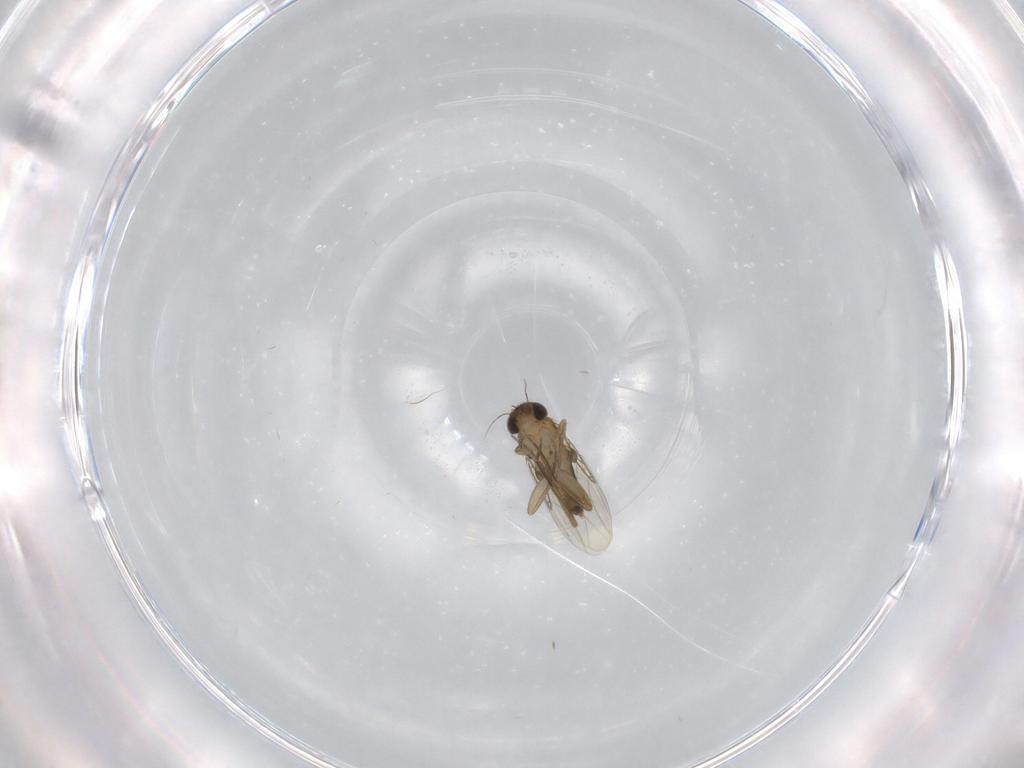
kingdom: Animalia
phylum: Arthropoda
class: Insecta
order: Diptera
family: Phoridae
